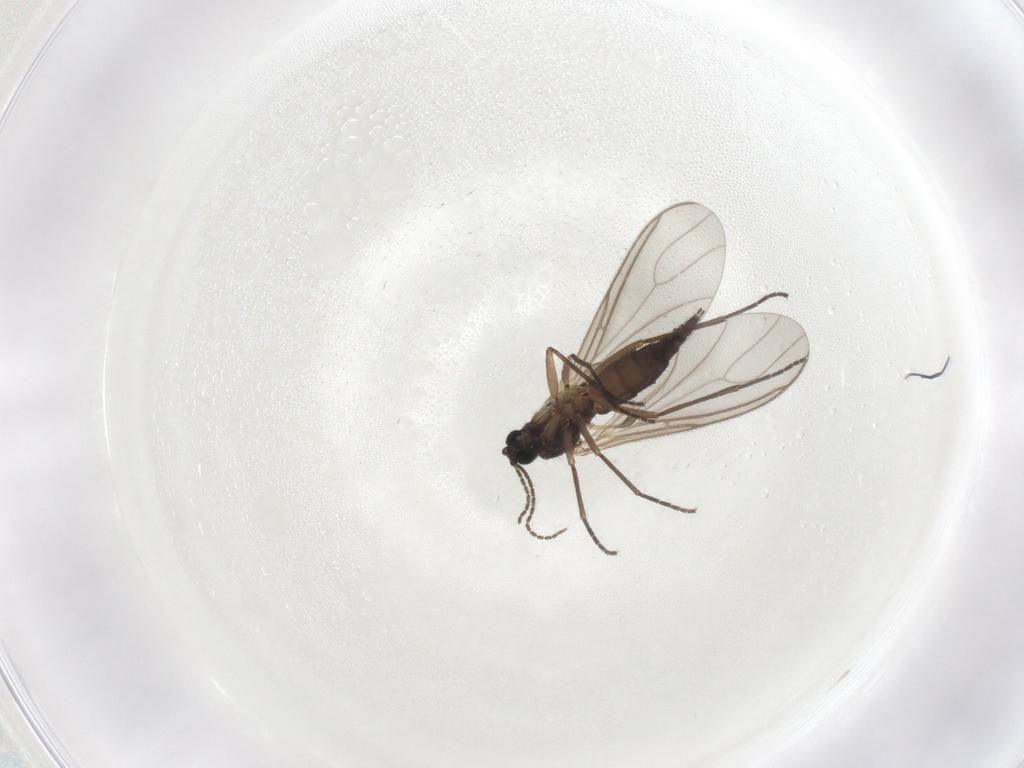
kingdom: Animalia
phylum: Arthropoda
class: Insecta
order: Diptera
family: Sciaridae
